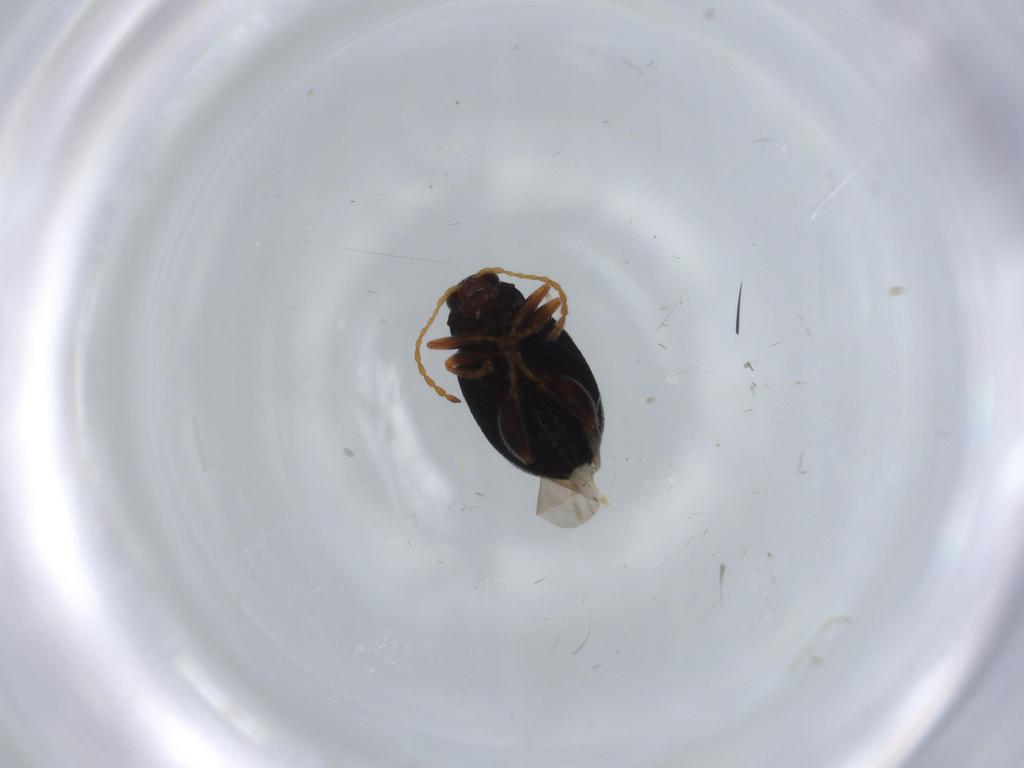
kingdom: Animalia
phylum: Arthropoda
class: Insecta
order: Coleoptera
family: Chrysomelidae
